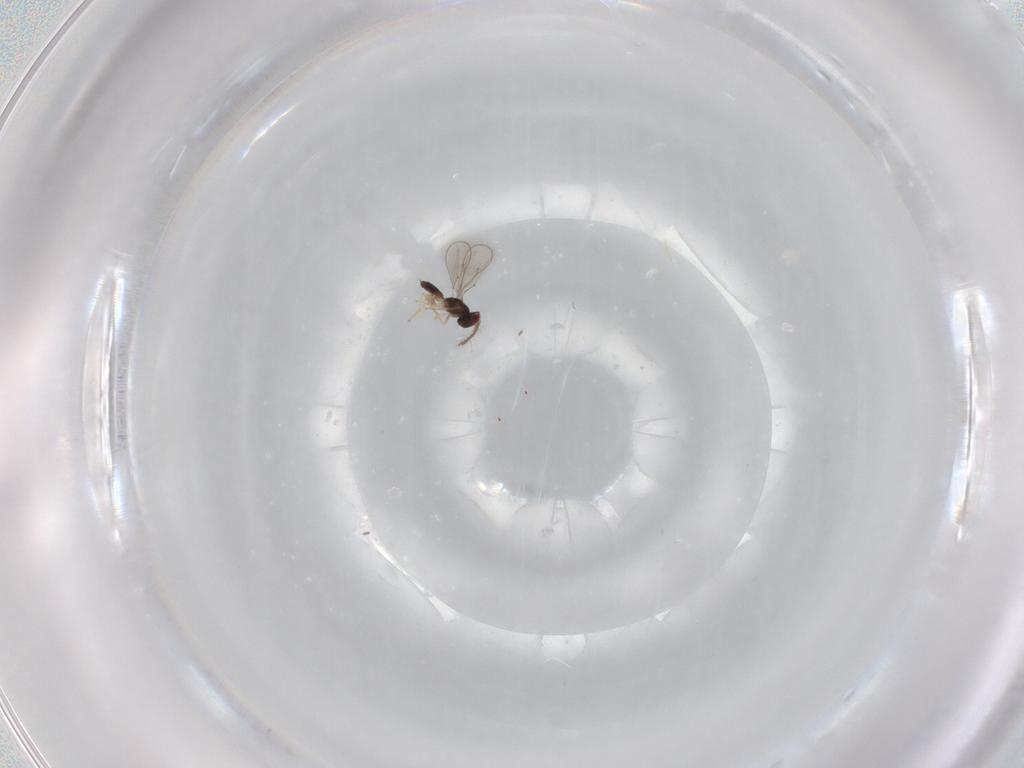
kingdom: Animalia
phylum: Arthropoda
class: Insecta
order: Hymenoptera
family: Eulophidae
